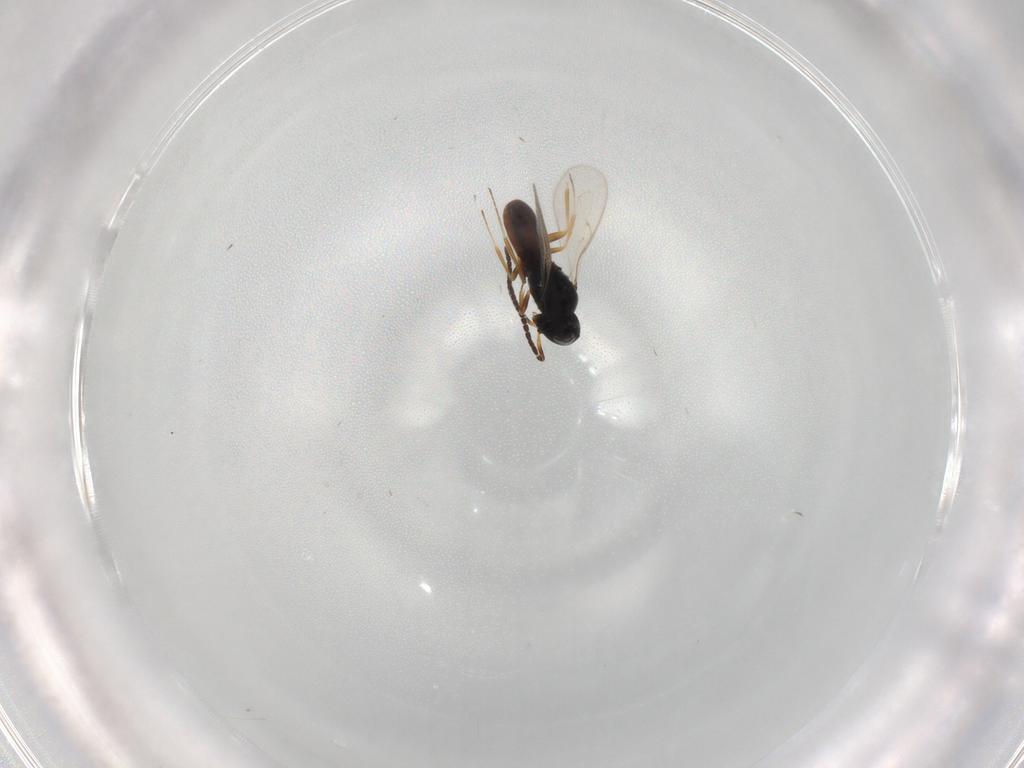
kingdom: Animalia
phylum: Arthropoda
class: Insecta
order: Hymenoptera
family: Scelionidae
